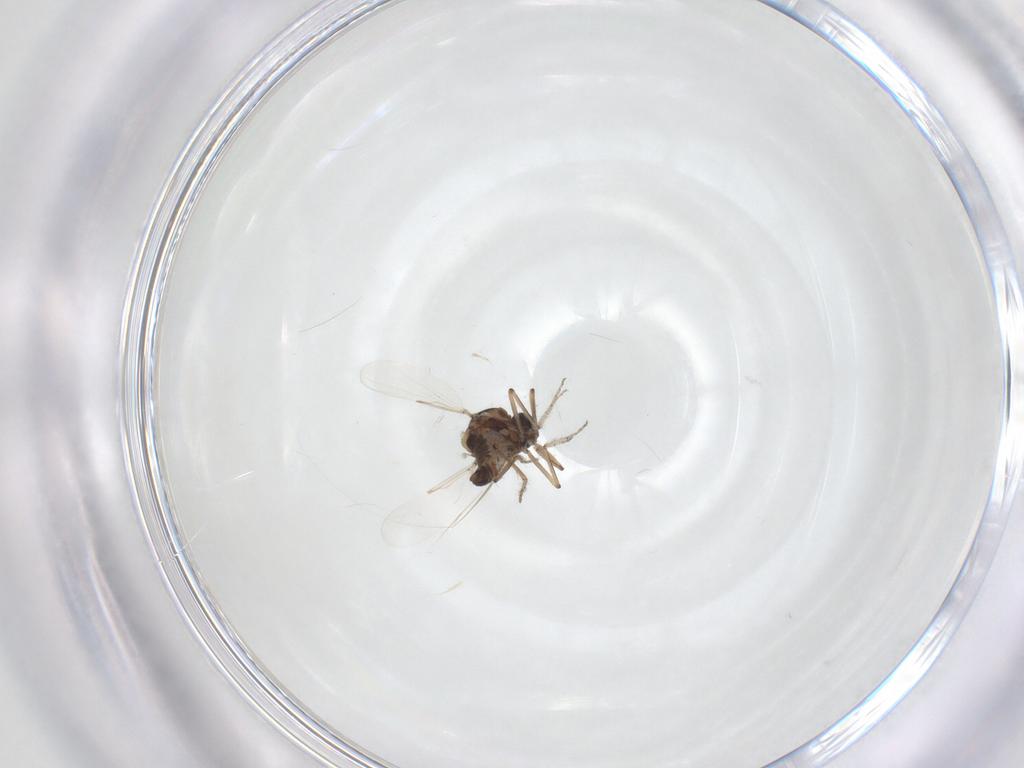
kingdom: Animalia
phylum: Arthropoda
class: Insecta
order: Diptera
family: Ceratopogonidae
